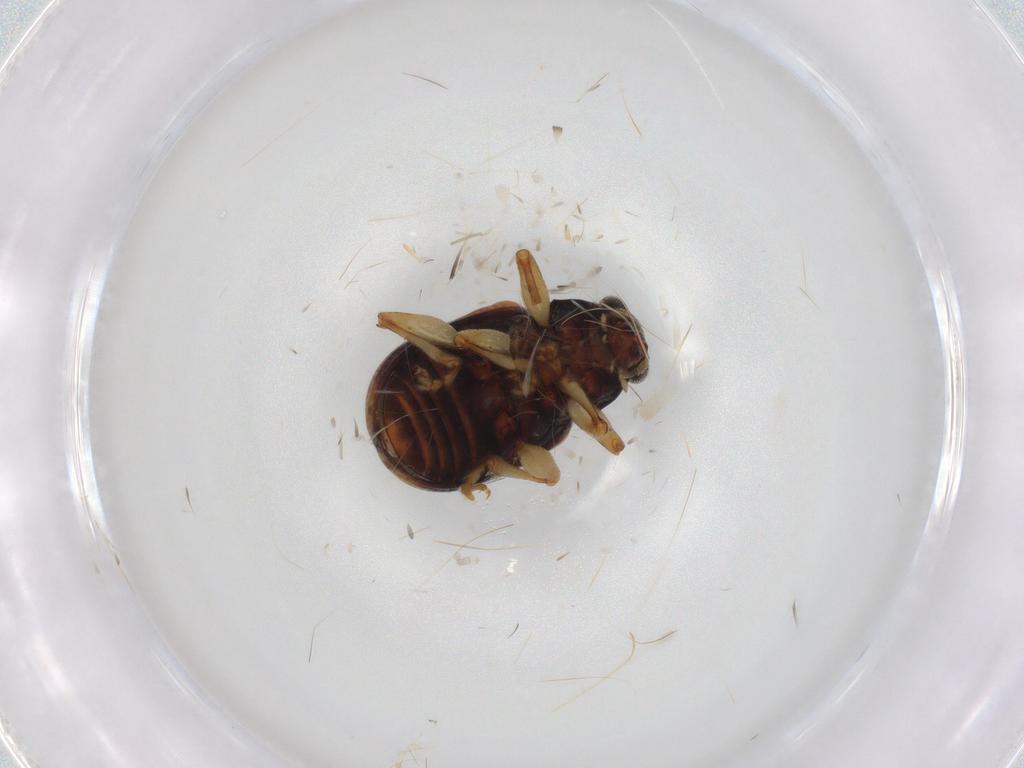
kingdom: Animalia
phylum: Arthropoda
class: Insecta
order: Coleoptera
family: Chrysomelidae
